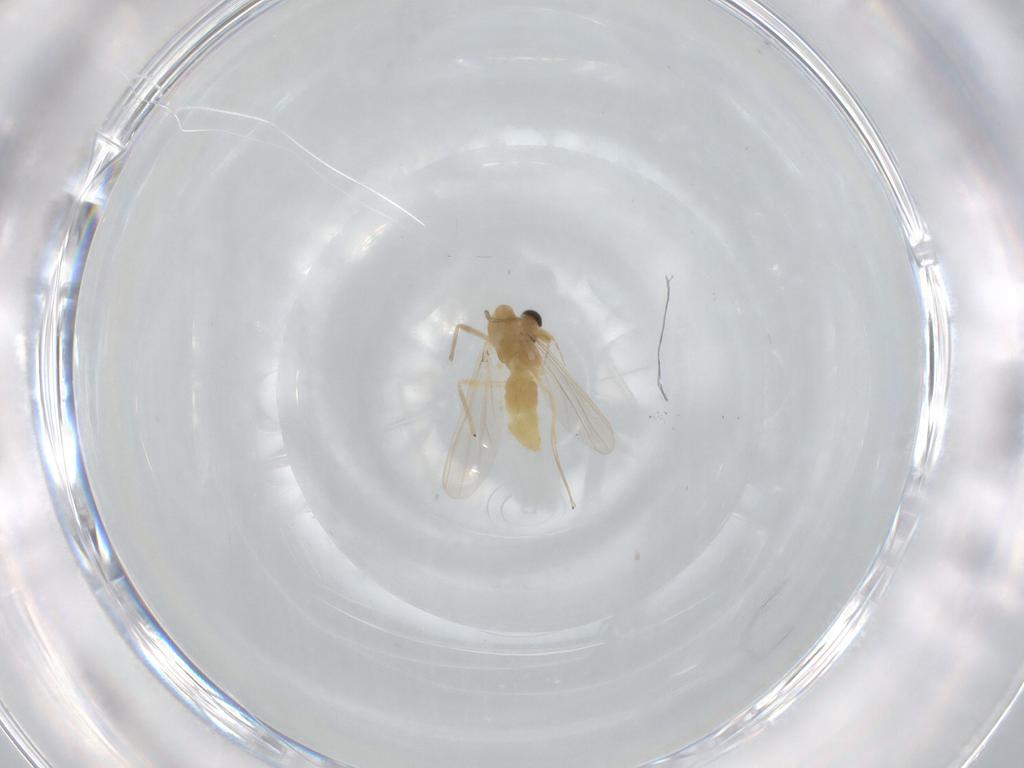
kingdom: Animalia
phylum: Arthropoda
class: Insecta
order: Diptera
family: Chironomidae
